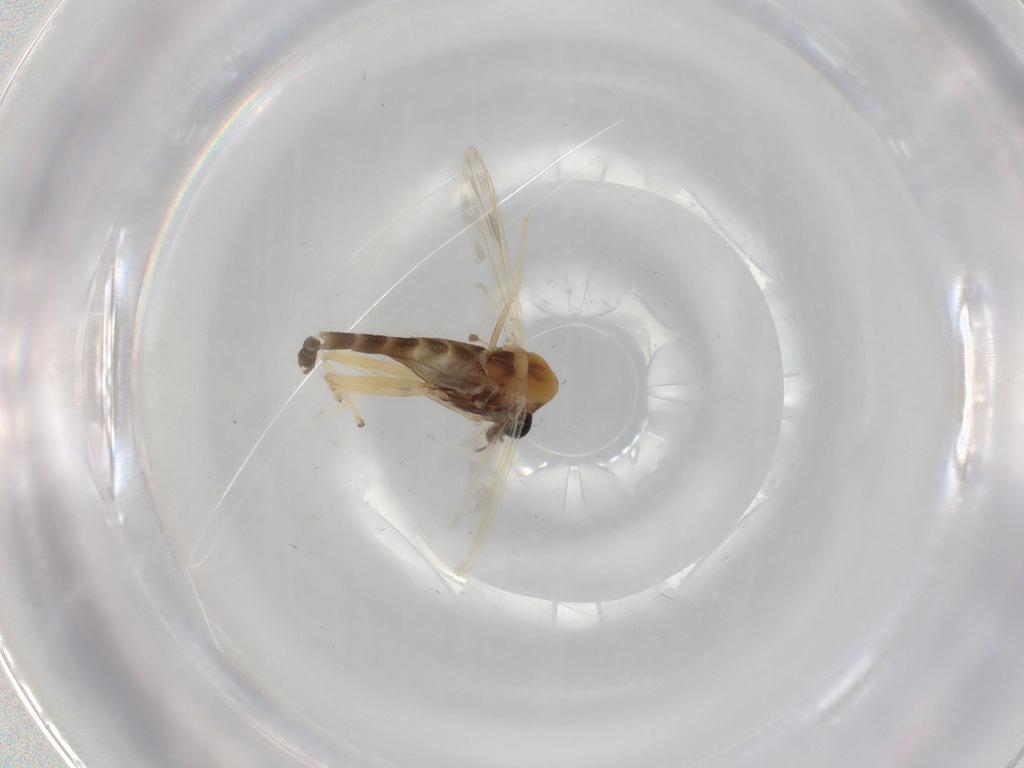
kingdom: Animalia
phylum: Arthropoda
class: Insecta
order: Diptera
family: Chironomidae
